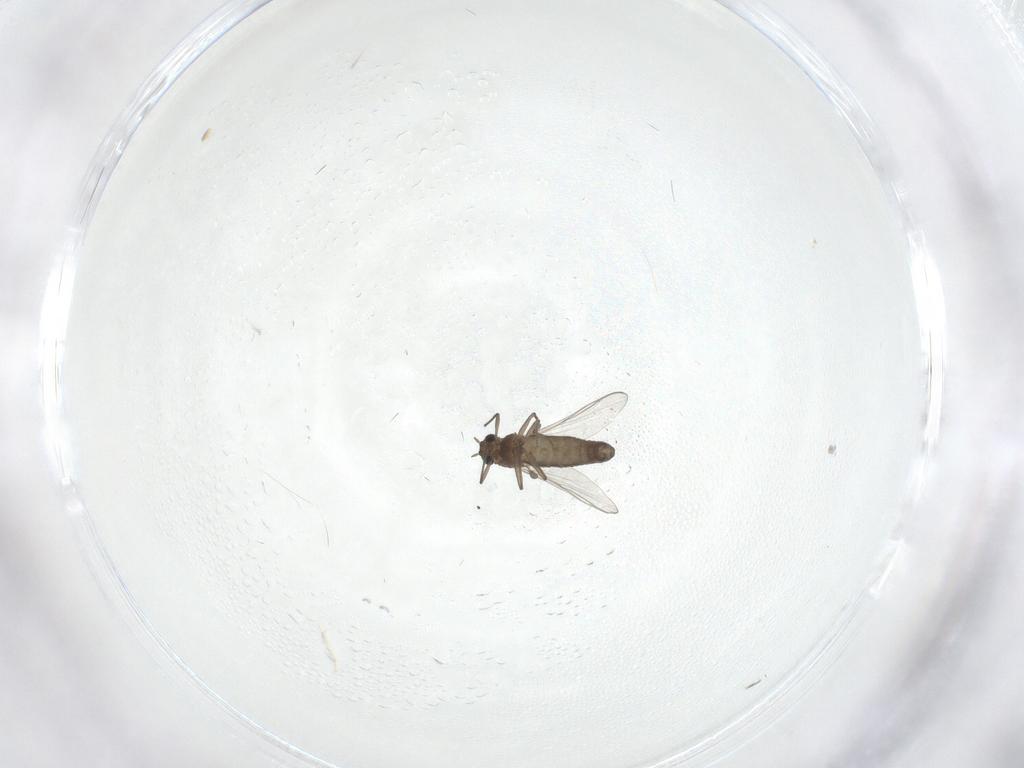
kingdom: Animalia
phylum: Arthropoda
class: Insecta
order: Diptera
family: Chironomidae
